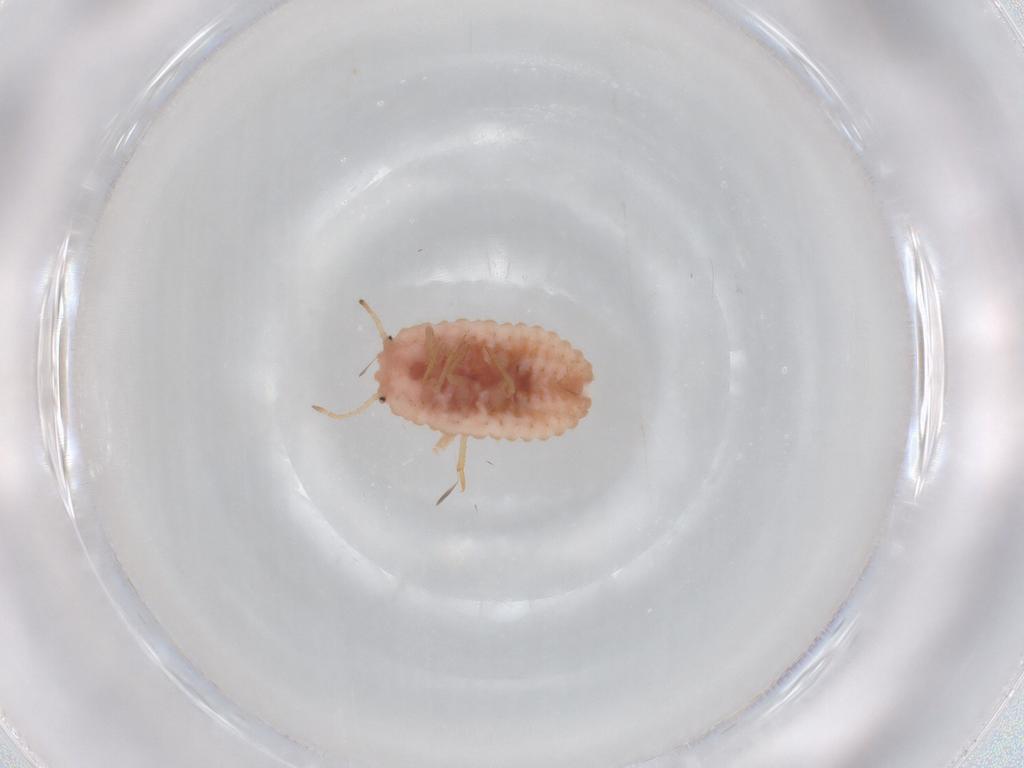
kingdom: Animalia
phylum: Arthropoda
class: Insecta
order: Hemiptera
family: Coccoidea_incertae_sedis
